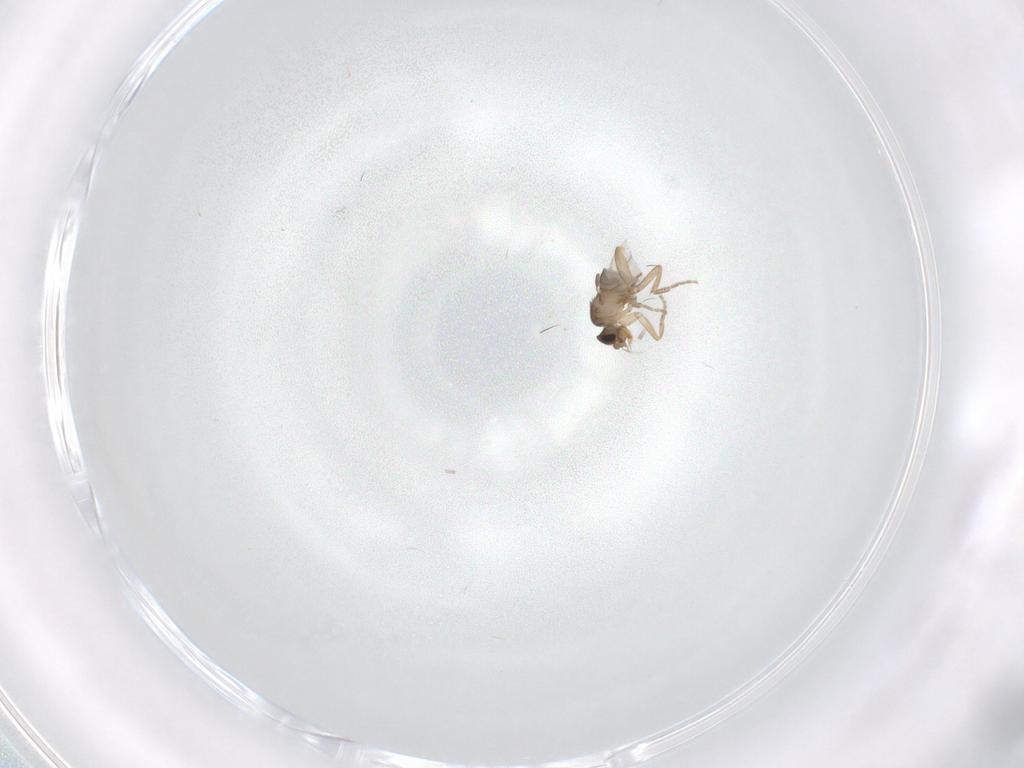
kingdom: Animalia
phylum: Arthropoda
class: Insecta
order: Diptera
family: Phoridae
